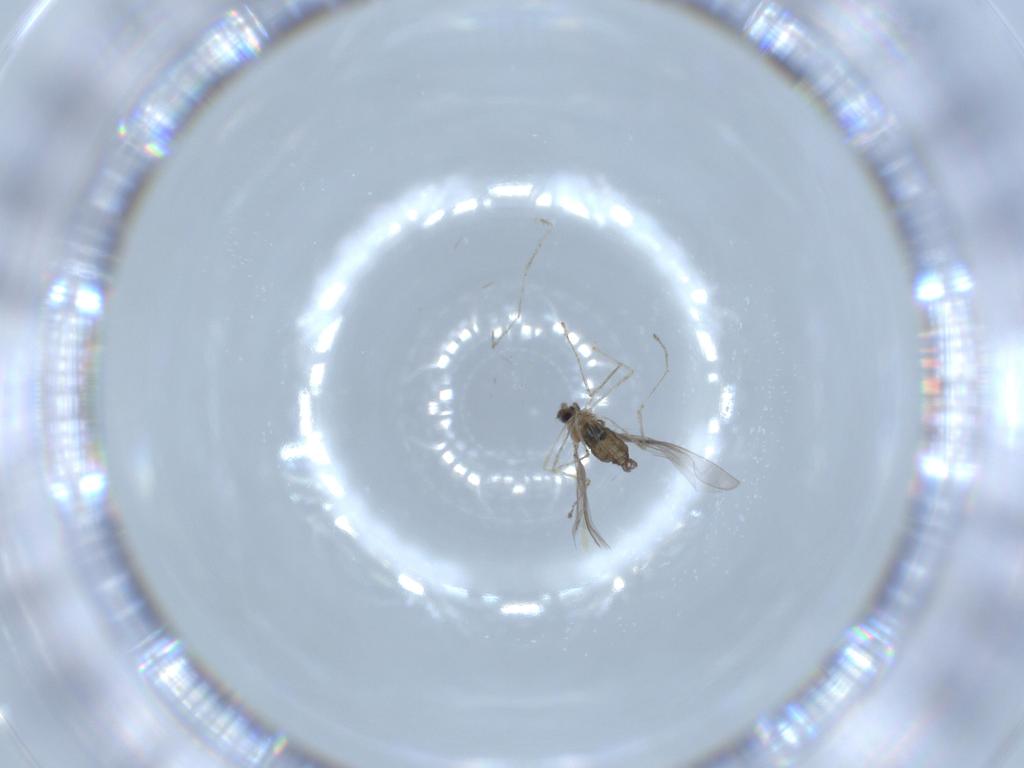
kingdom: Animalia
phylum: Arthropoda
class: Insecta
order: Diptera
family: Cecidomyiidae
